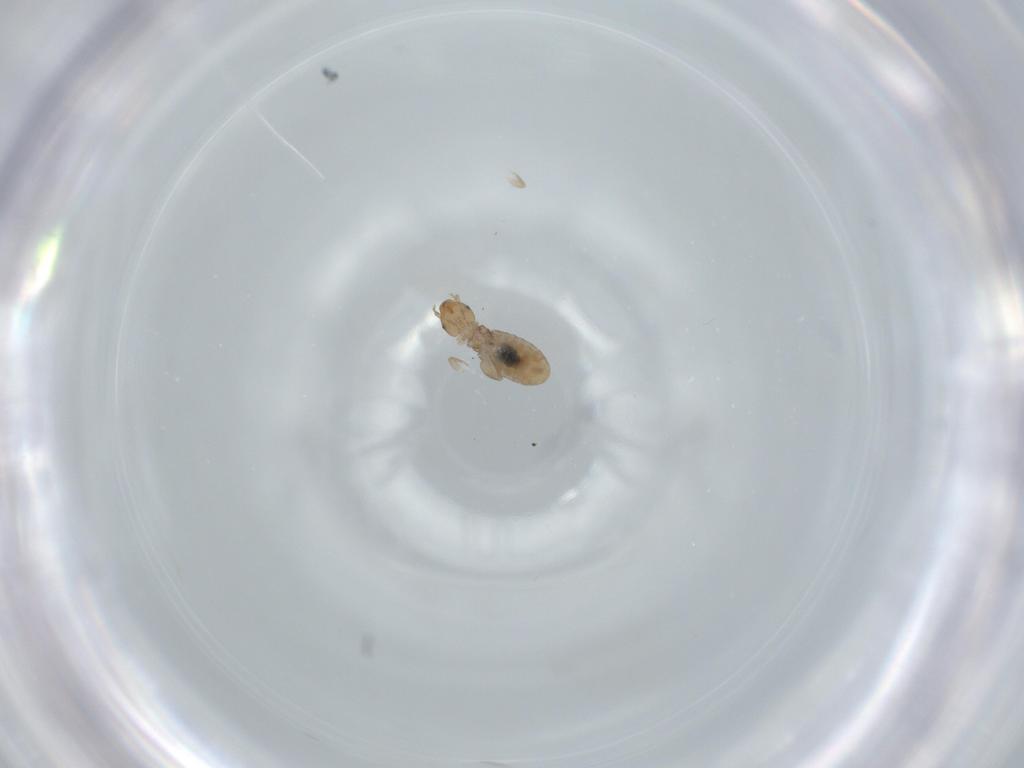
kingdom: Animalia
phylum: Arthropoda
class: Insecta
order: Psocodea
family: Liposcelididae
